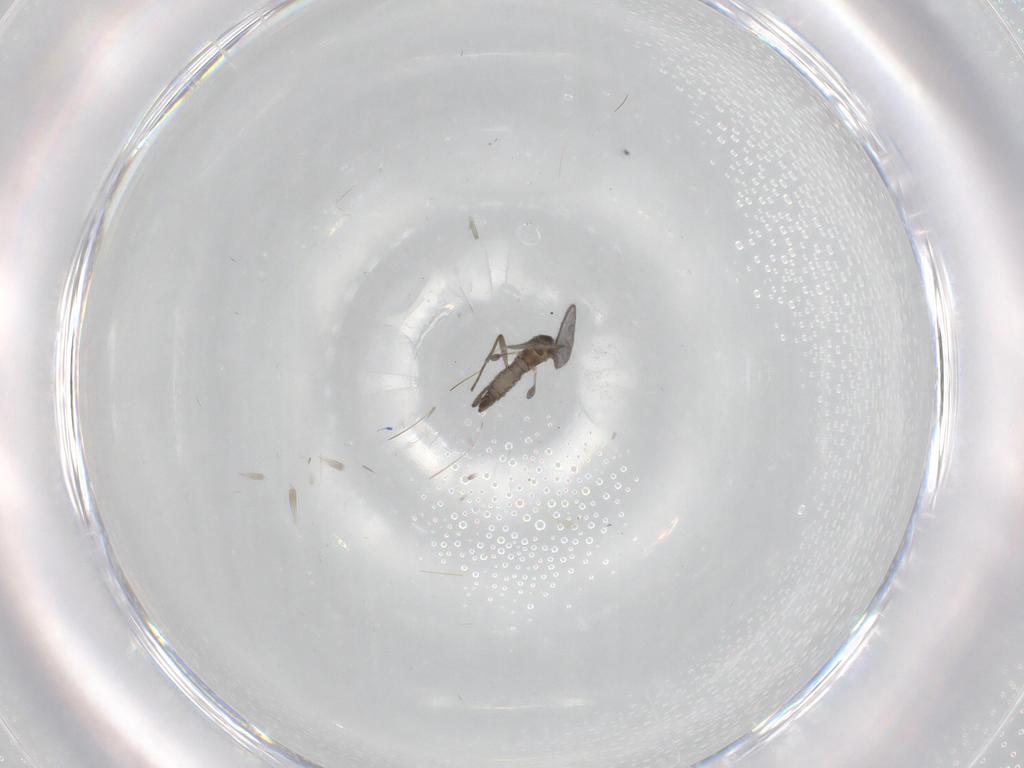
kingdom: Animalia
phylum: Arthropoda
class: Insecta
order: Diptera
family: Sciaridae
